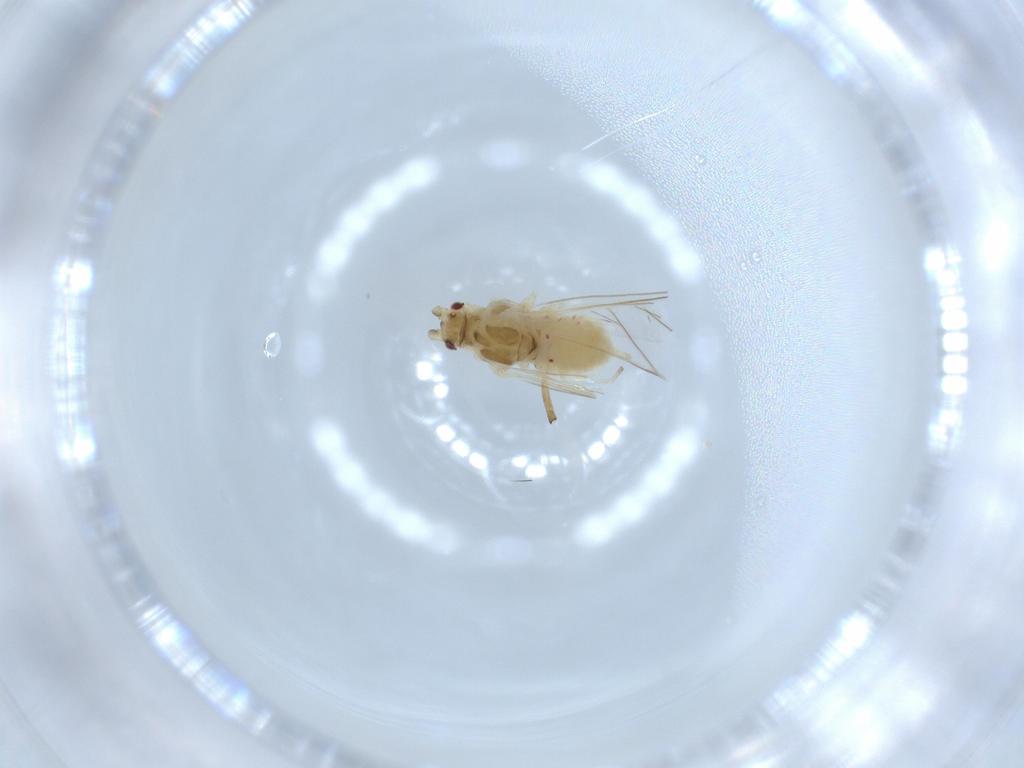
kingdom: Animalia
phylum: Arthropoda
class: Insecta
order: Hemiptera
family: Aphididae
